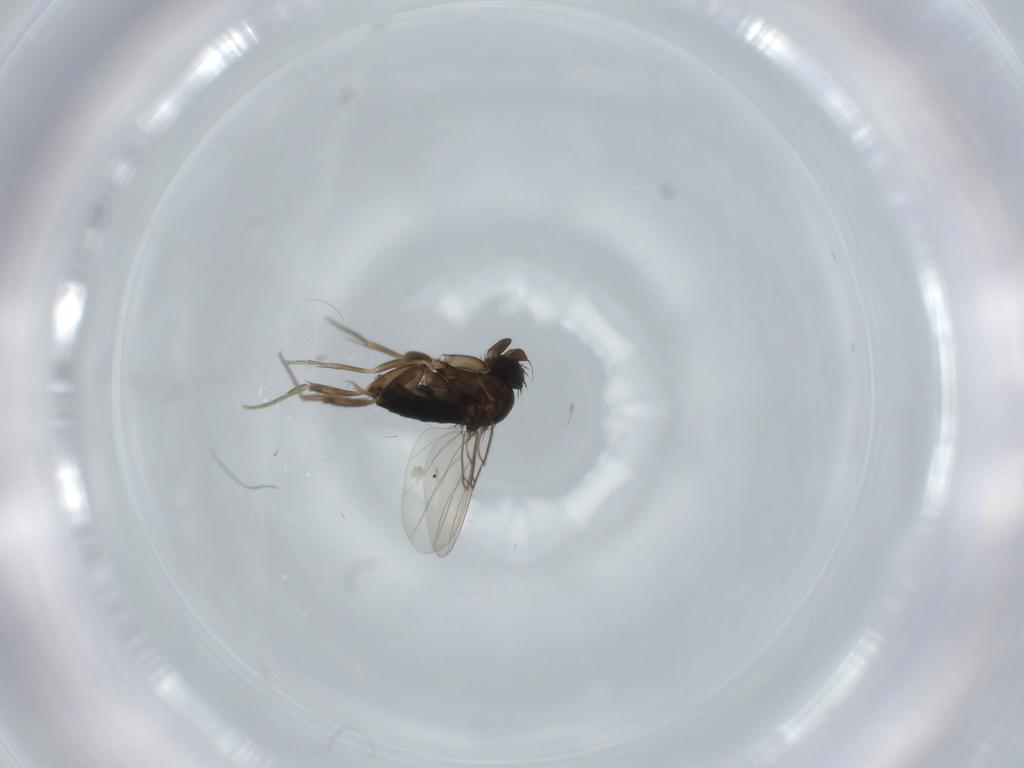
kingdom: Animalia
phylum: Arthropoda
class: Insecta
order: Diptera
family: Phoridae
